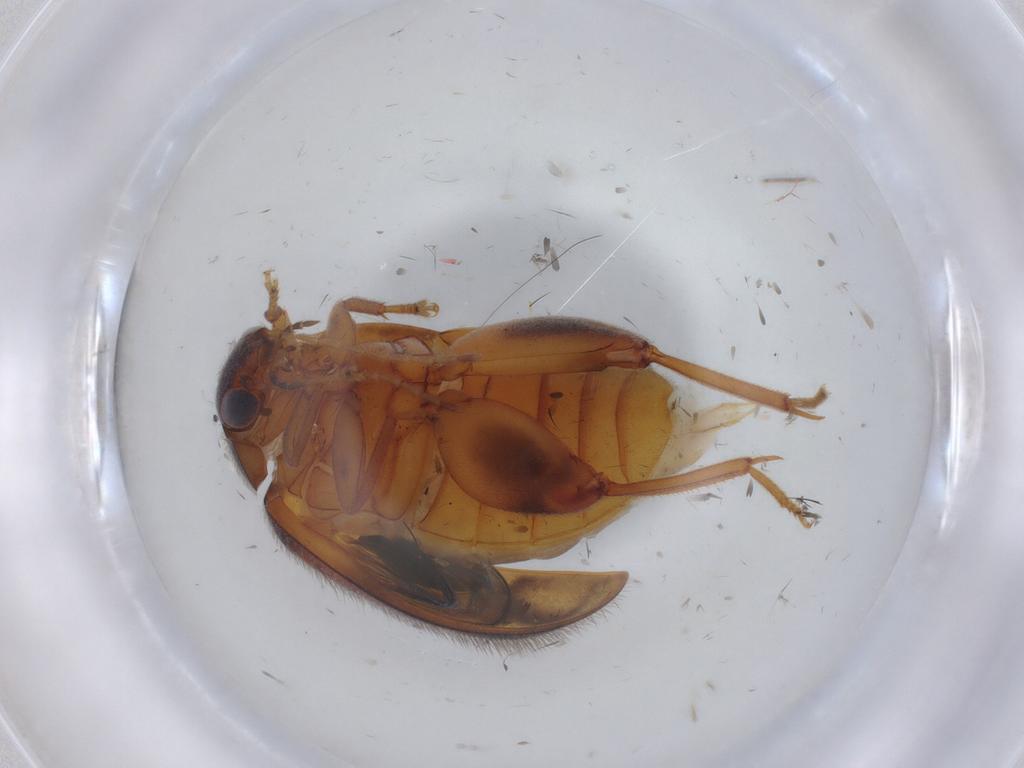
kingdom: Animalia
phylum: Arthropoda
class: Insecta
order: Coleoptera
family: Scirtidae
